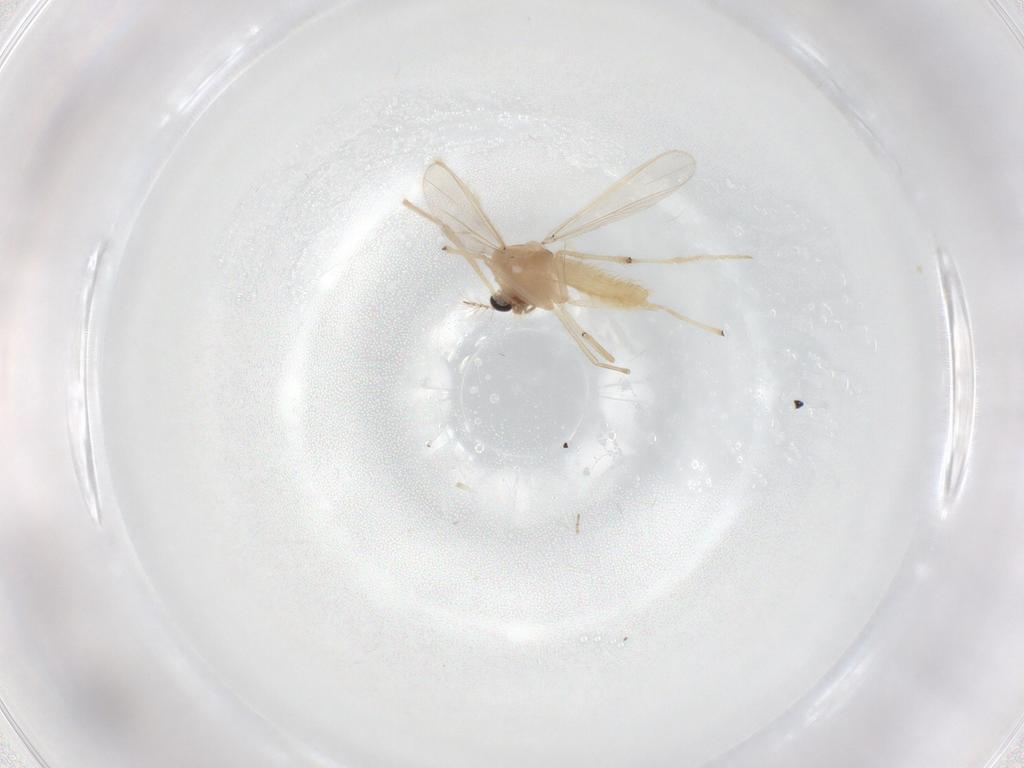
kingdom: Animalia
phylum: Arthropoda
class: Insecta
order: Diptera
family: Chironomidae
